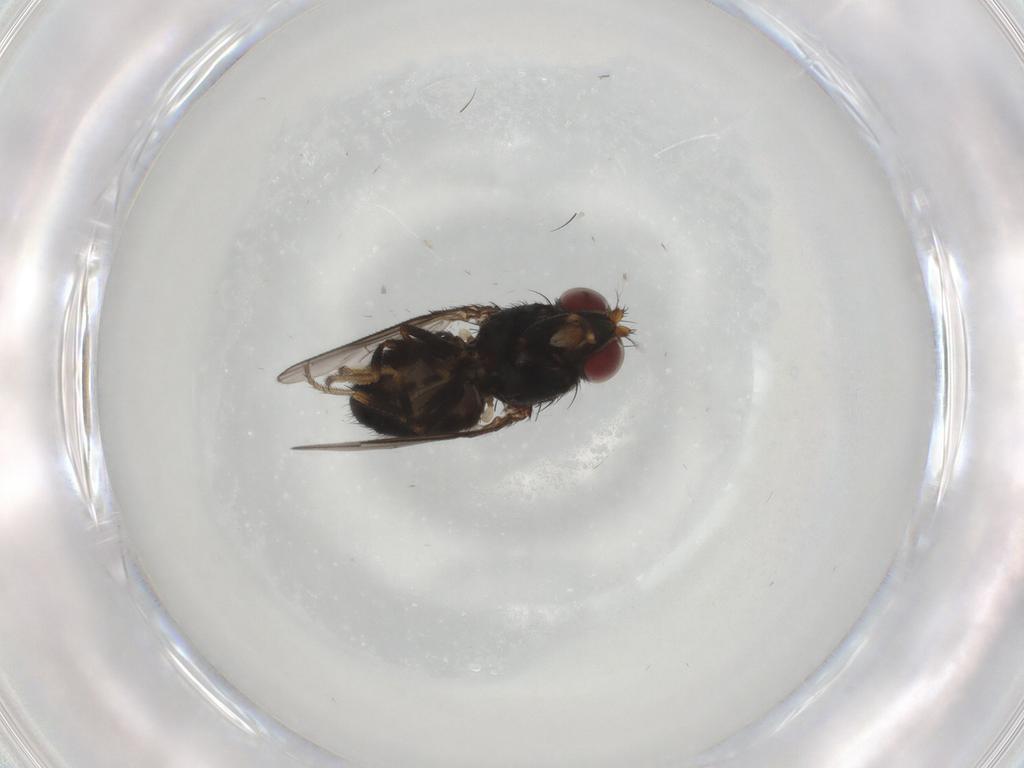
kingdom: Animalia
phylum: Arthropoda
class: Insecta
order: Diptera
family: Ephydridae
